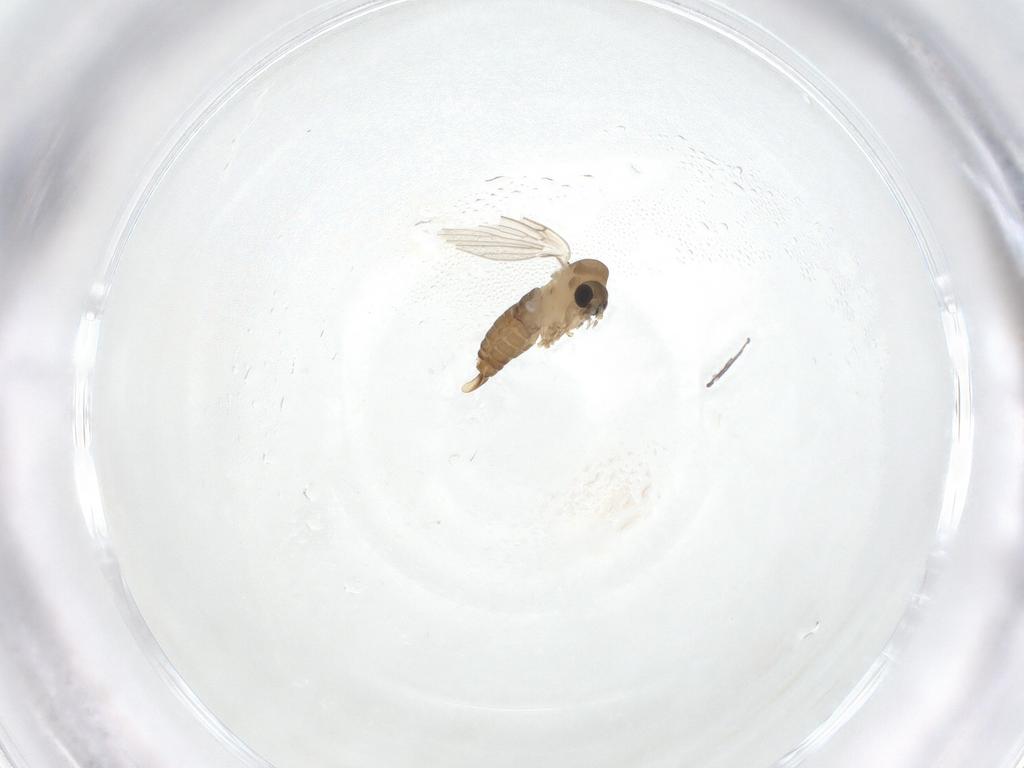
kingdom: Animalia
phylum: Arthropoda
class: Insecta
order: Diptera
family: Psychodidae
